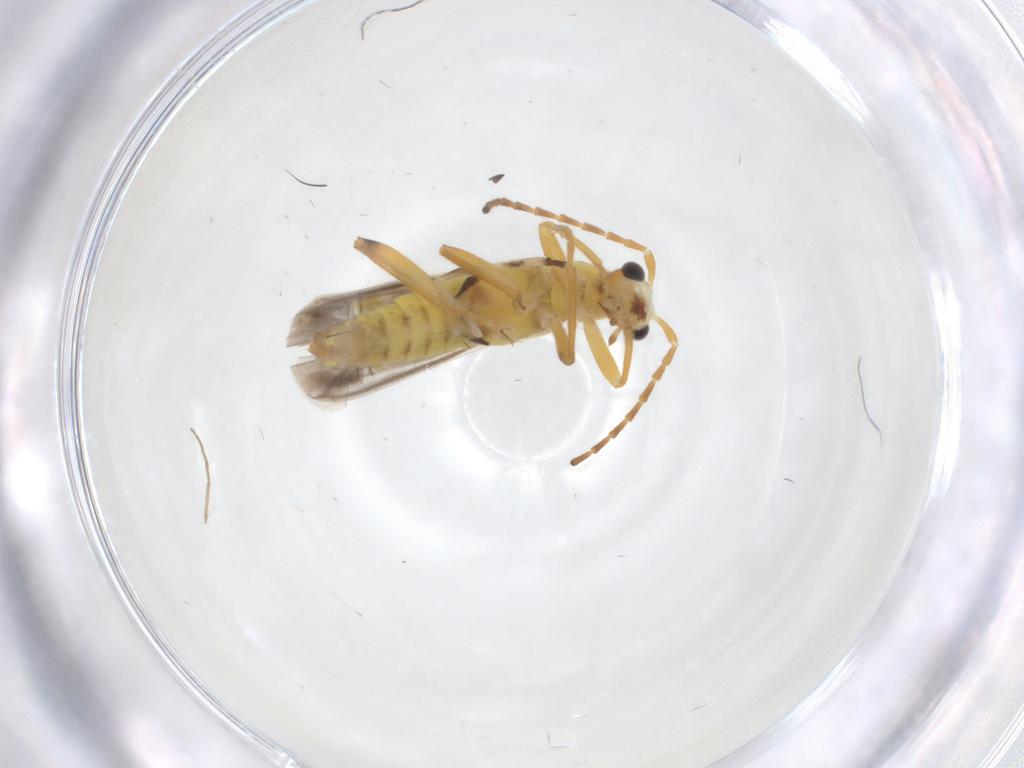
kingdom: Animalia
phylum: Arthropoda
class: Insecta
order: Coleoptera
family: Cantharidae
